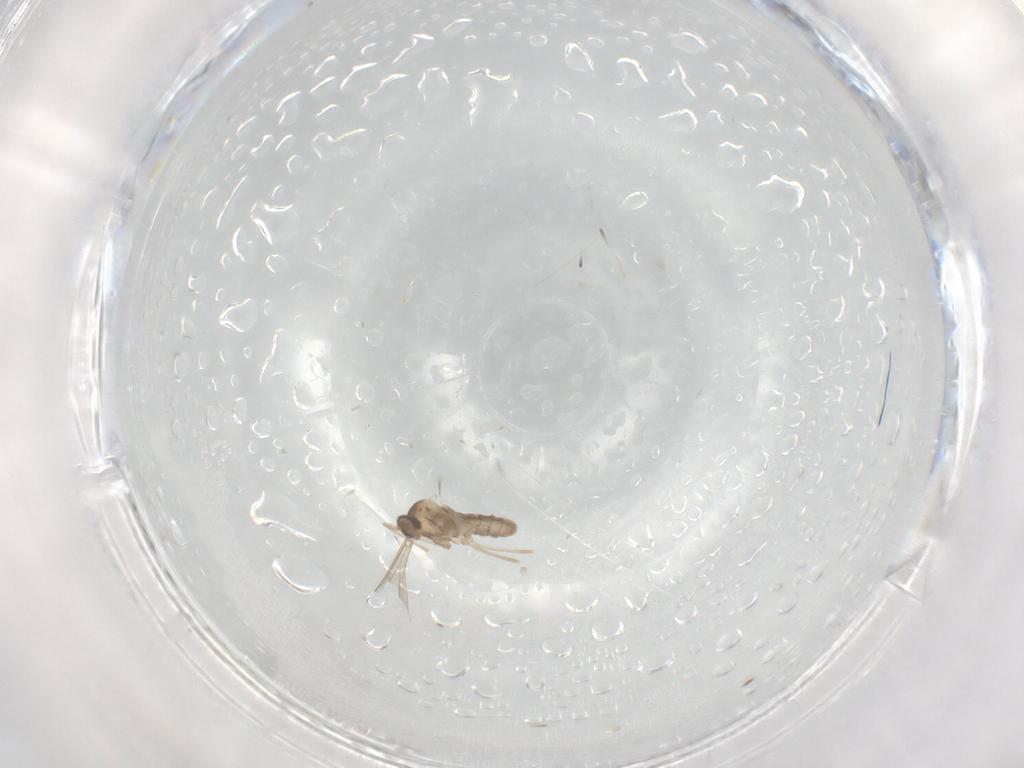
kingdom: Animalia
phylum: Arthropoda
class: Insecta
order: Diptera
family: Cecidomyiidae
